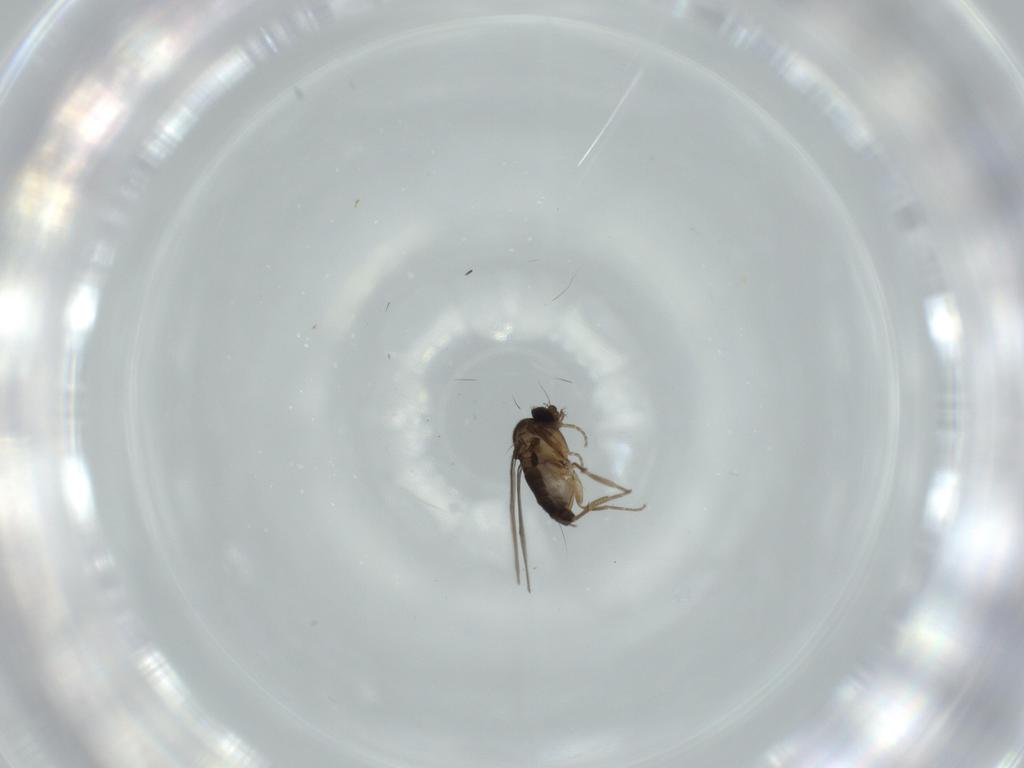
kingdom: Animalia
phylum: Arthropoda
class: Insecta
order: Diptera
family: Phoridae
